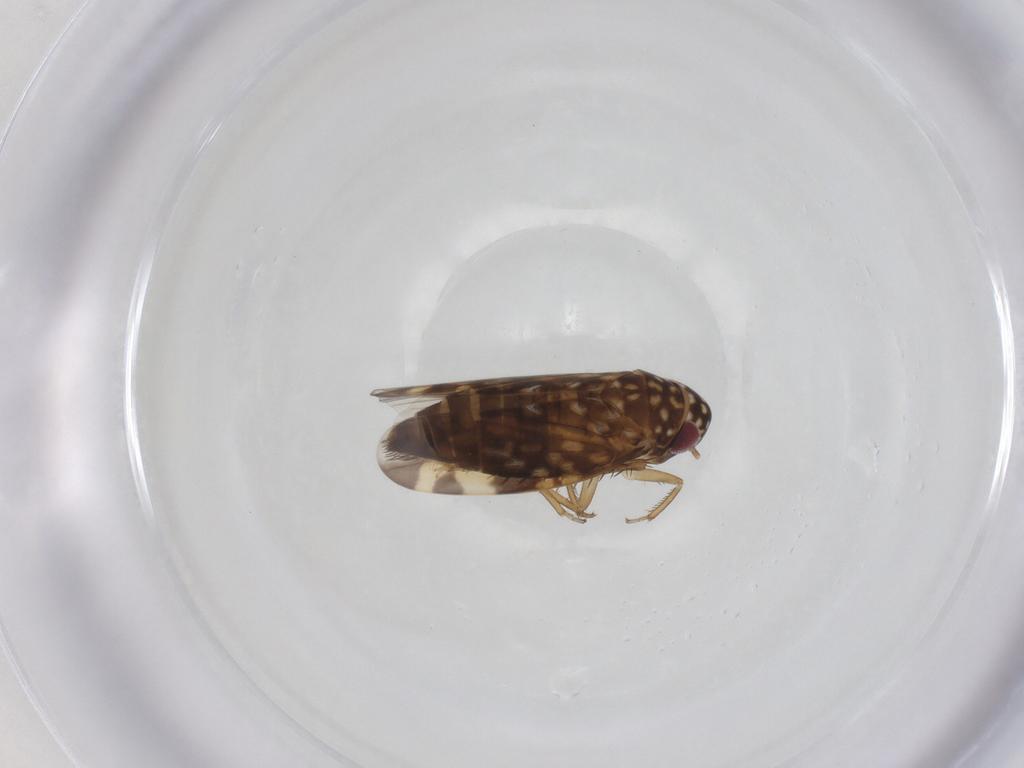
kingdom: Animalia
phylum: Arthropoda
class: Insecta
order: Hemiptera
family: Cicadellidae
